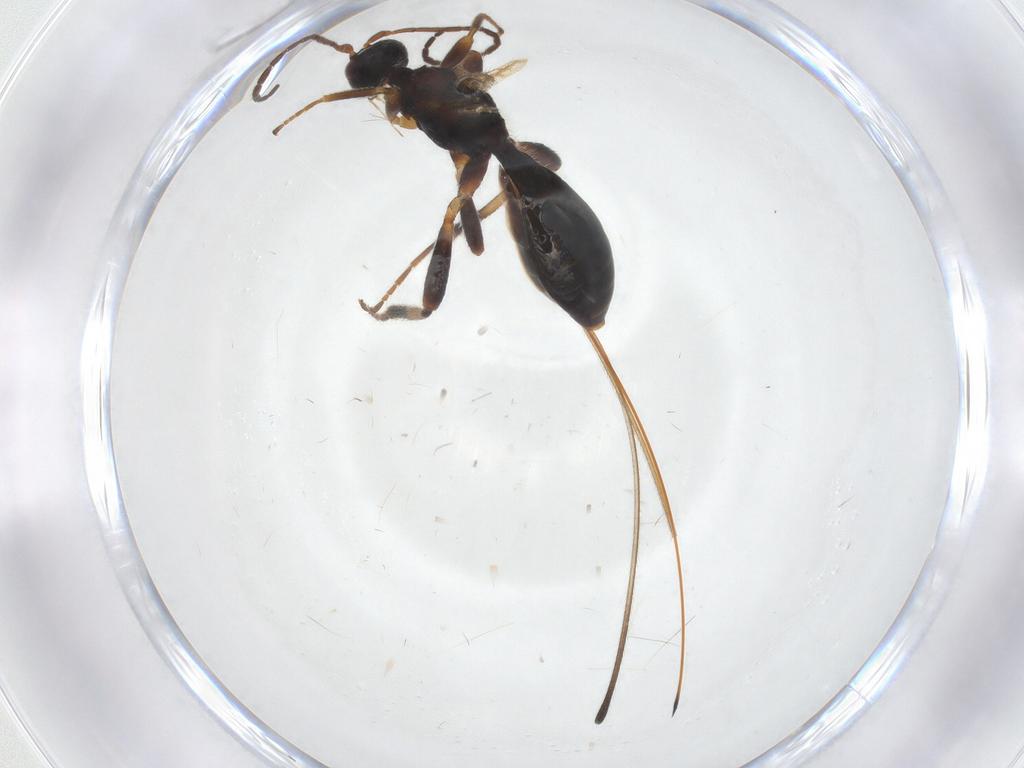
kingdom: Animalia
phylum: Arthropoda
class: Insecta
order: Hymenoptera
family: Braconidae
